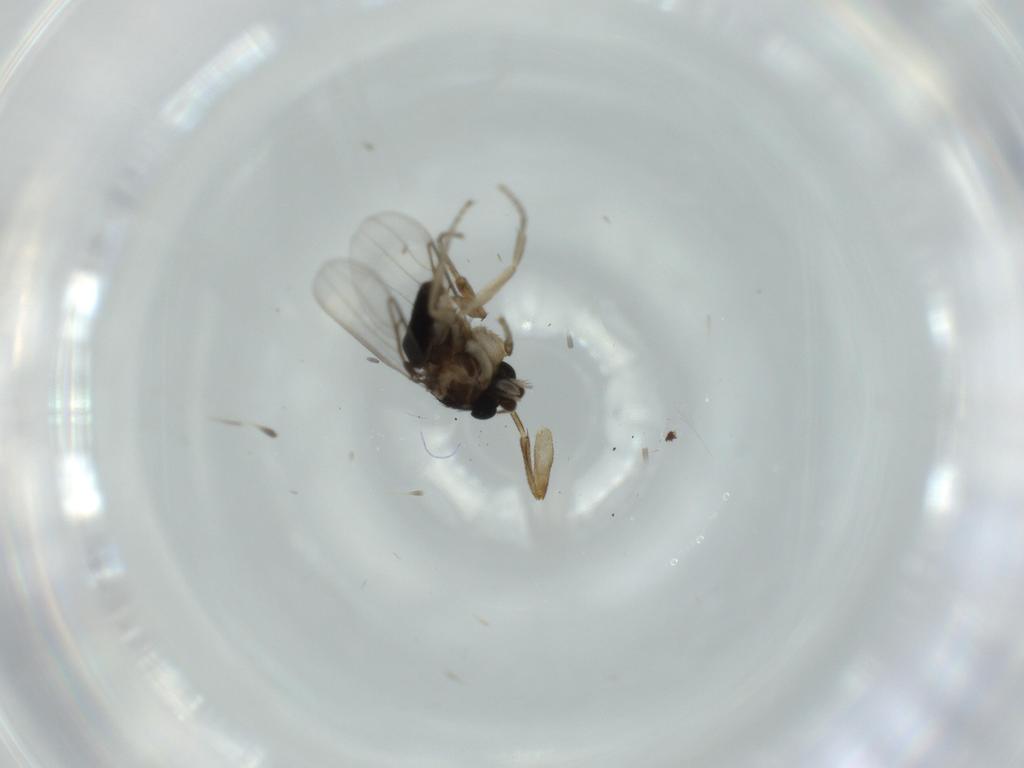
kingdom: Animalia
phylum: Arthropoda
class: Insecta
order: Diptera
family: Phoridae
